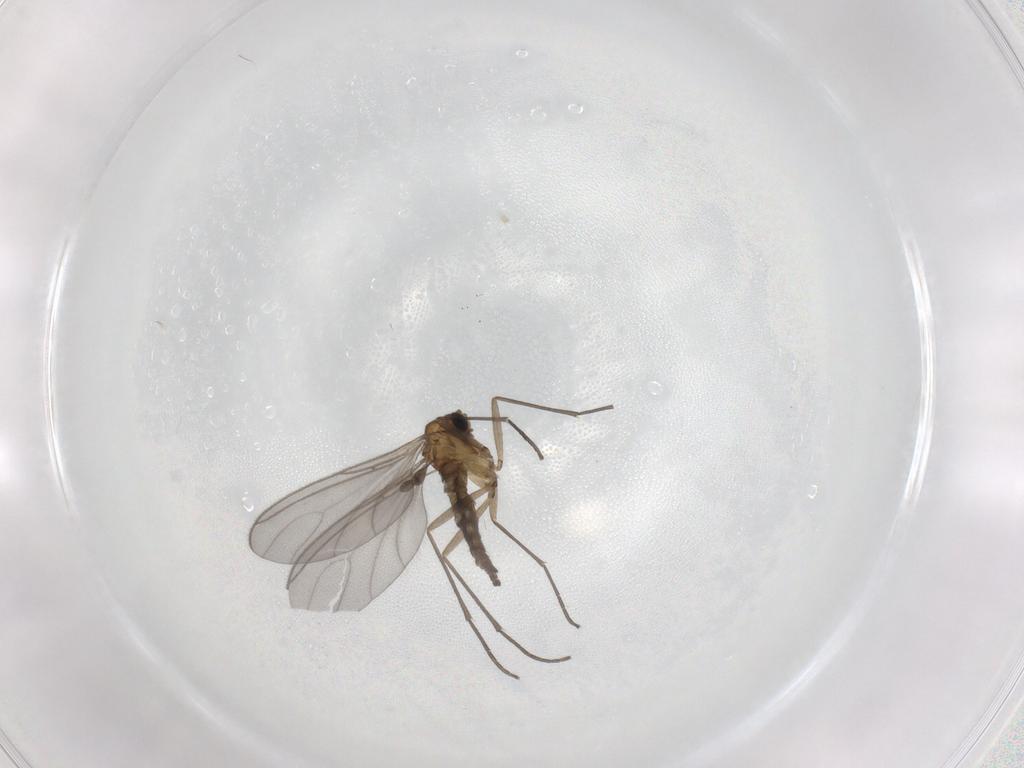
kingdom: Animalia
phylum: Arthropoda
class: Insecta
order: Diptera
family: Sciaridae
